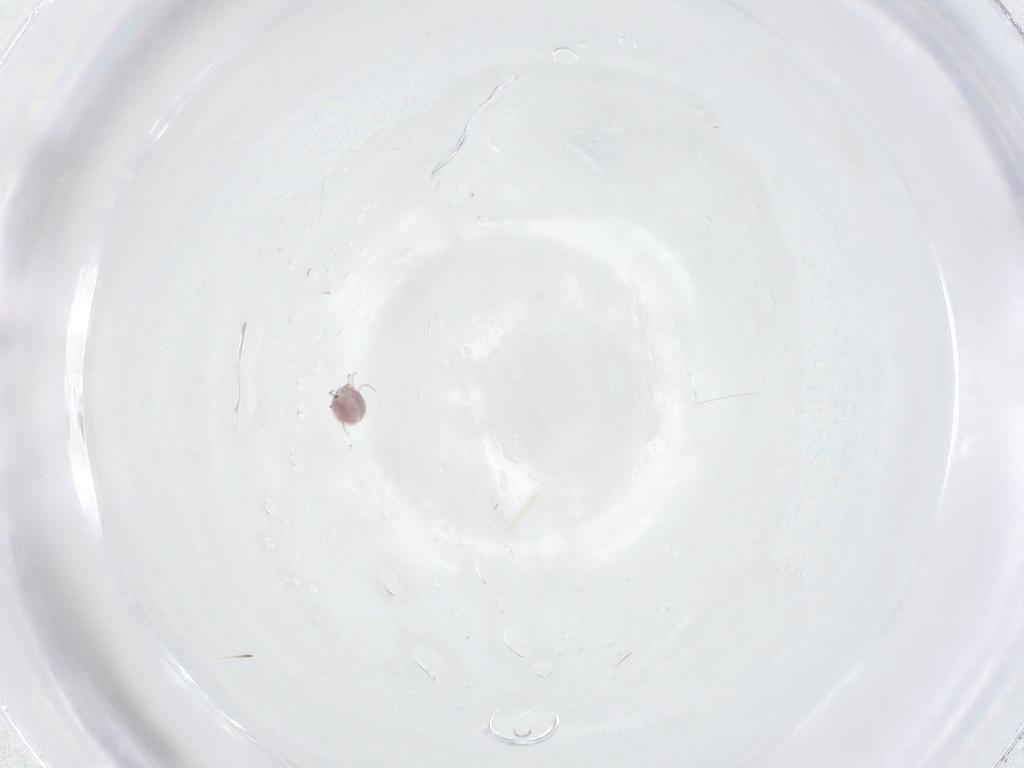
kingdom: Animalia
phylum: Arthropoda
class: Arachnida
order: Trombidiformes
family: Pionidae
